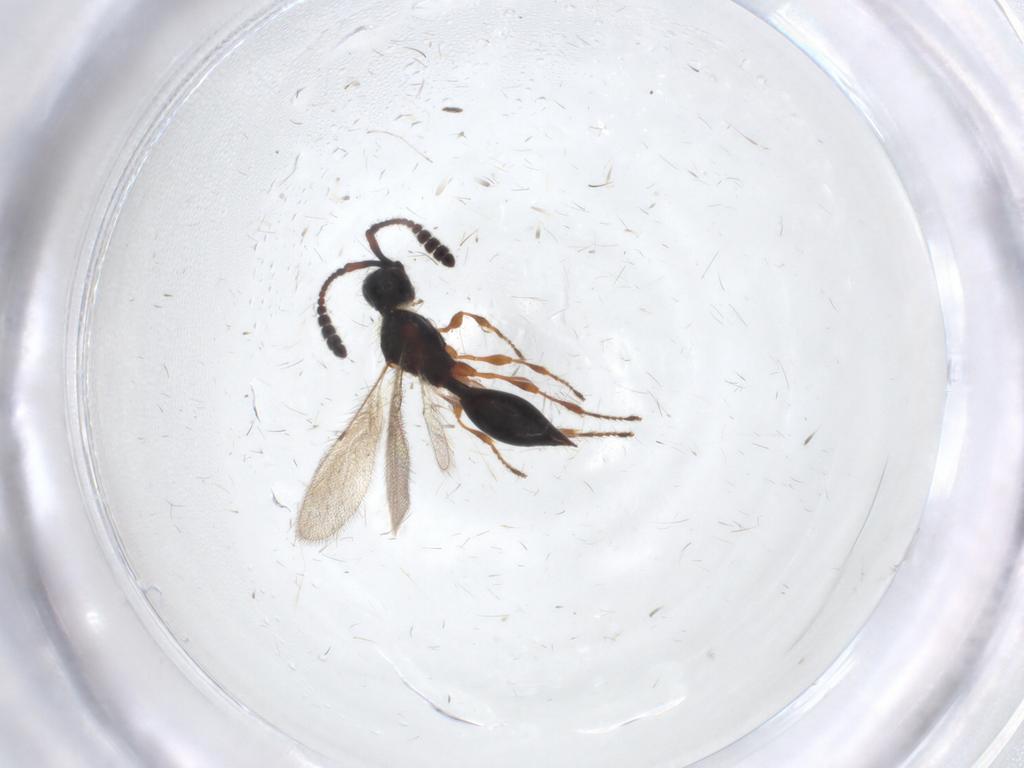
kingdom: Animalia
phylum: Arthropoda
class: Insecta
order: Hymenoptera
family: Diapriidae
